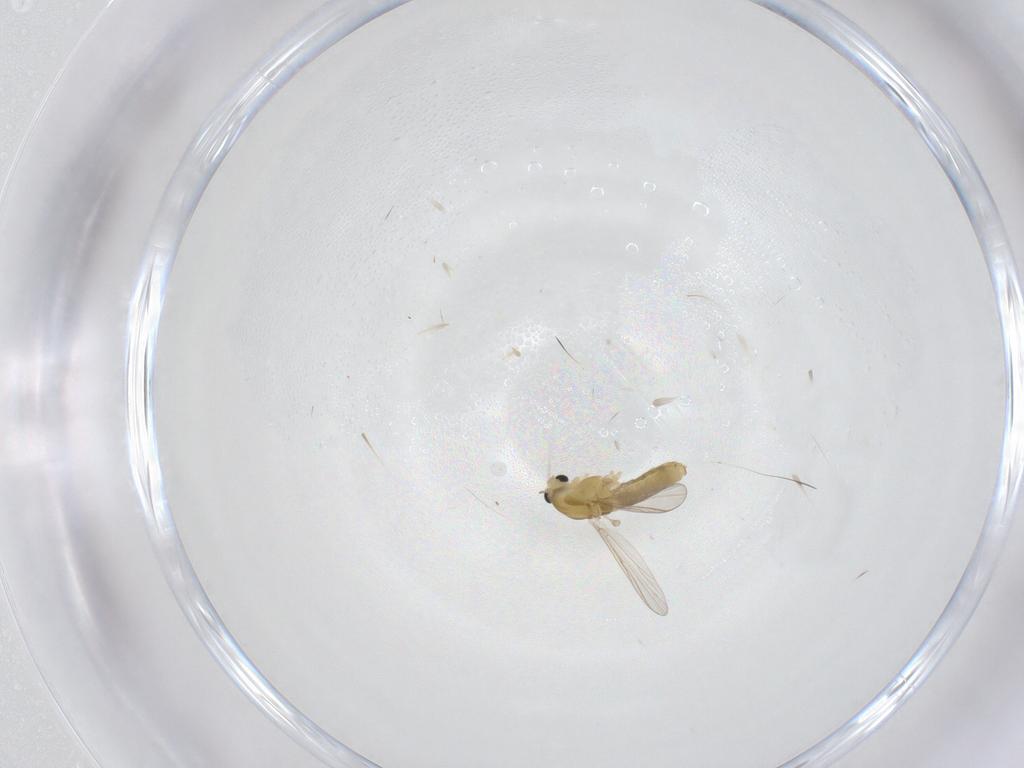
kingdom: Animalia
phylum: Arthropoda
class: Insecta
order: Diptera
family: Chironomidae
